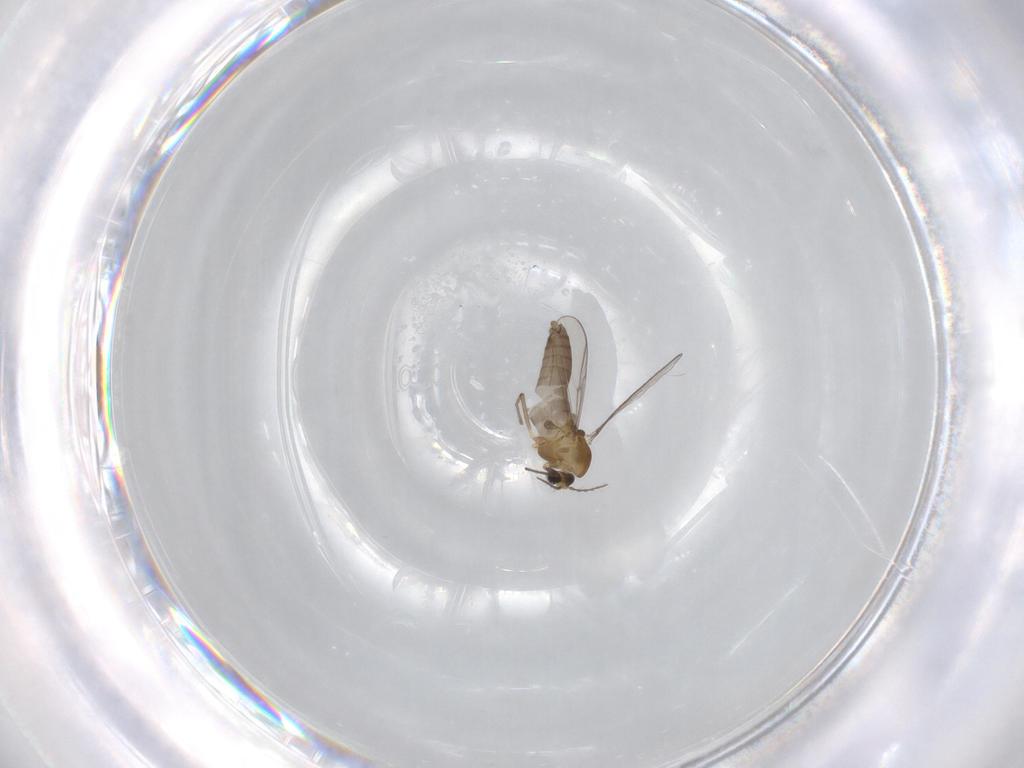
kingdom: Animalia
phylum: Arthropoda
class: Insecta
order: Diptera
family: Chironomidae
